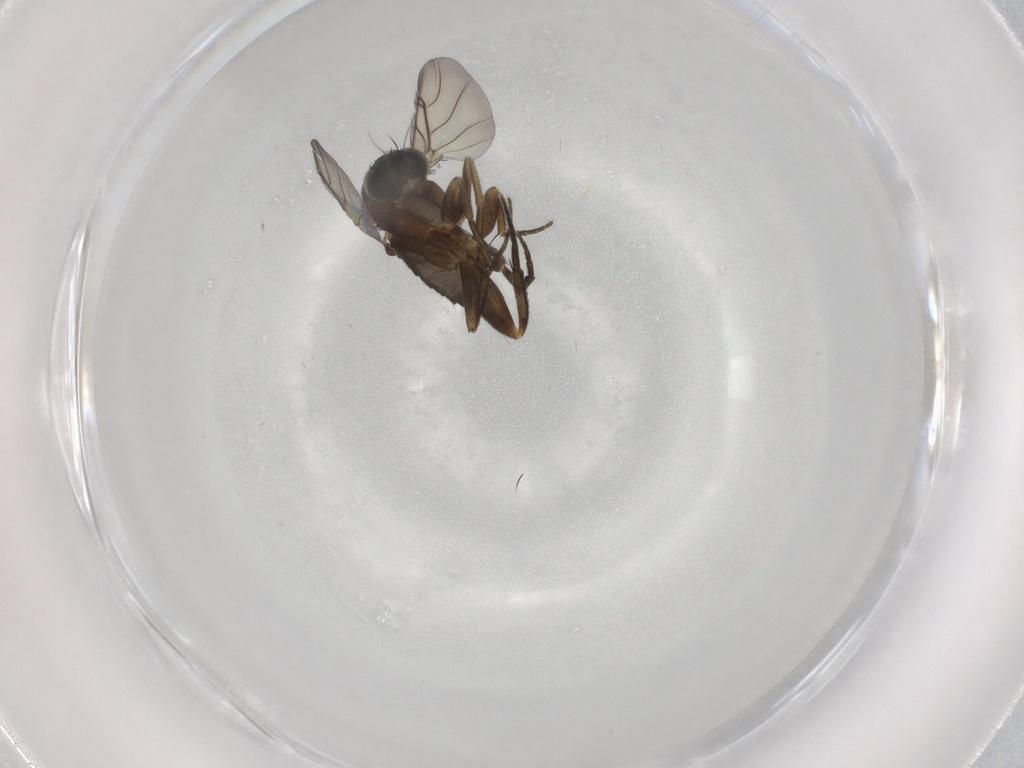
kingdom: Animalia
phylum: Arthropoda
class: Insecta
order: Diptera
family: Phoridae
